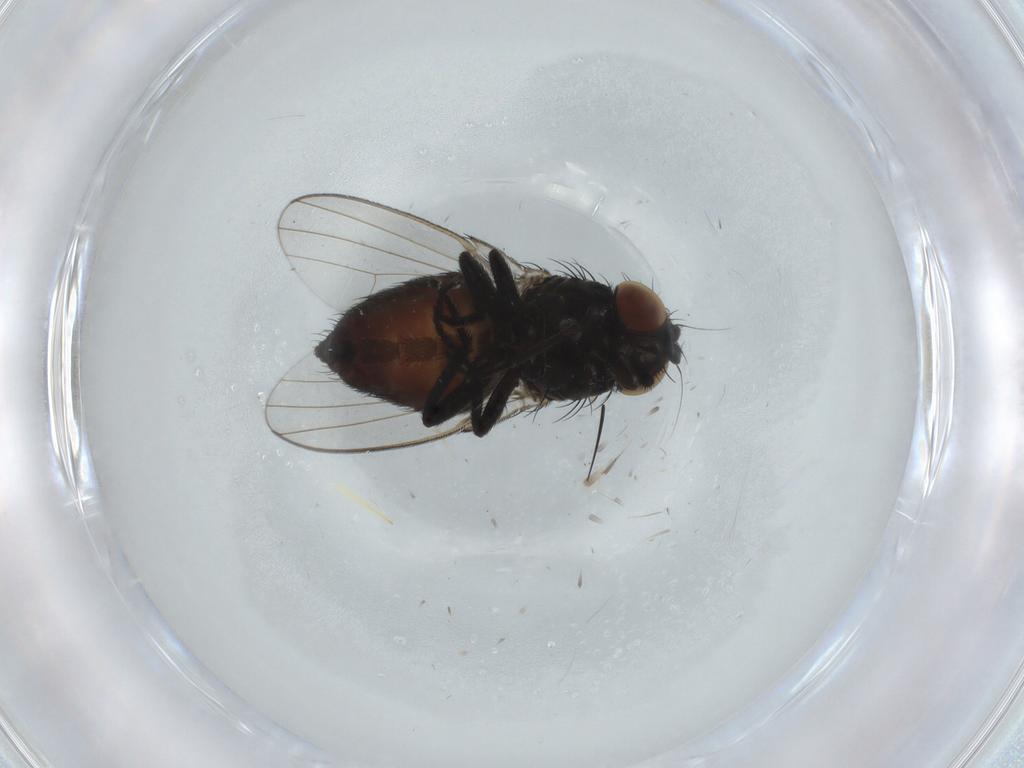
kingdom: Animalia
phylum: Arthropoda
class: Insecta
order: Diptera
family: Milichiidae
